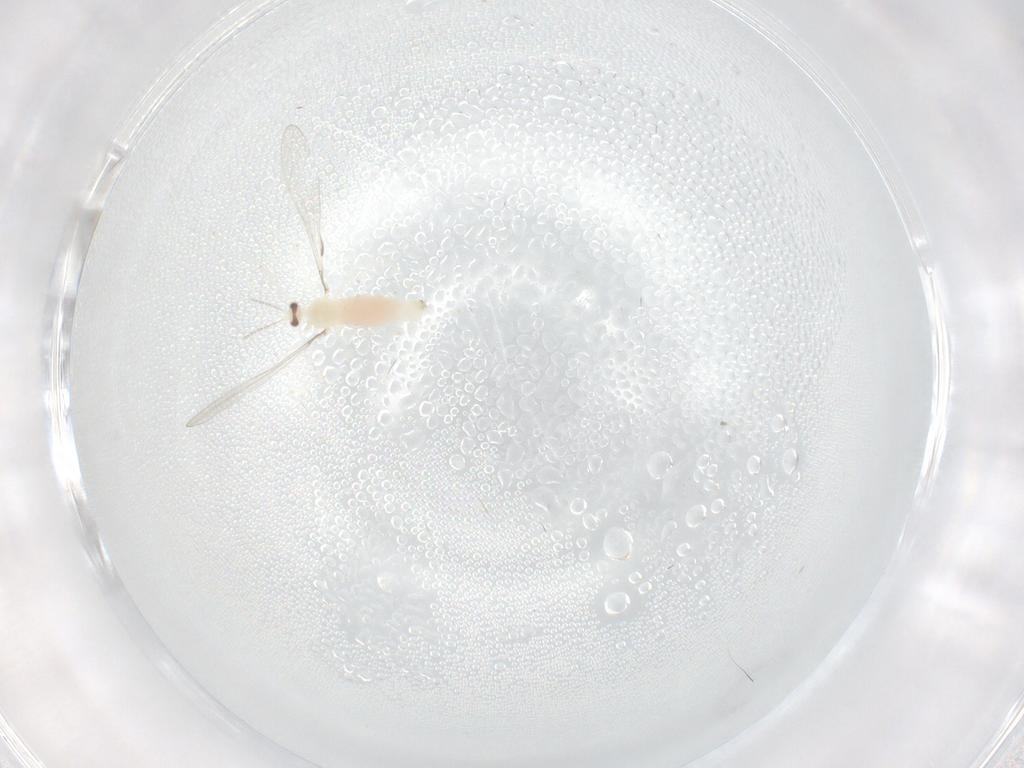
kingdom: Animalia
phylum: Arthropoda
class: Insecta
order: Diptera
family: Cecidomyiidae
